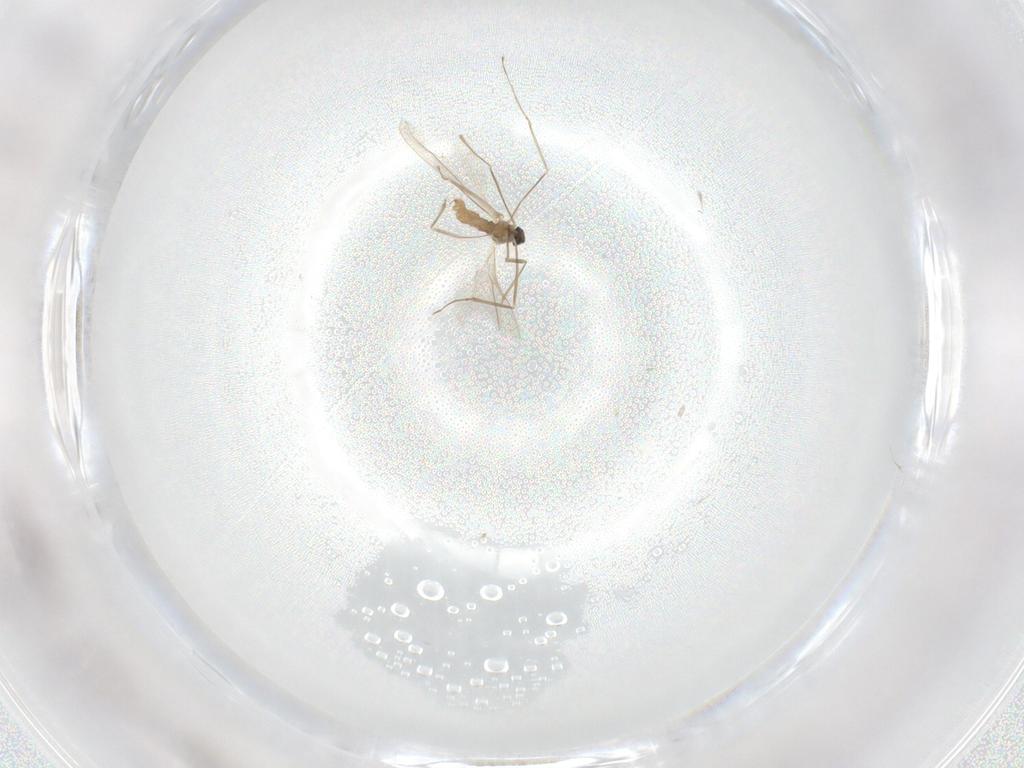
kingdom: Animalia
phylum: Arthropoda
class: Insecta
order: Diptera
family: Cecidomyiidae
